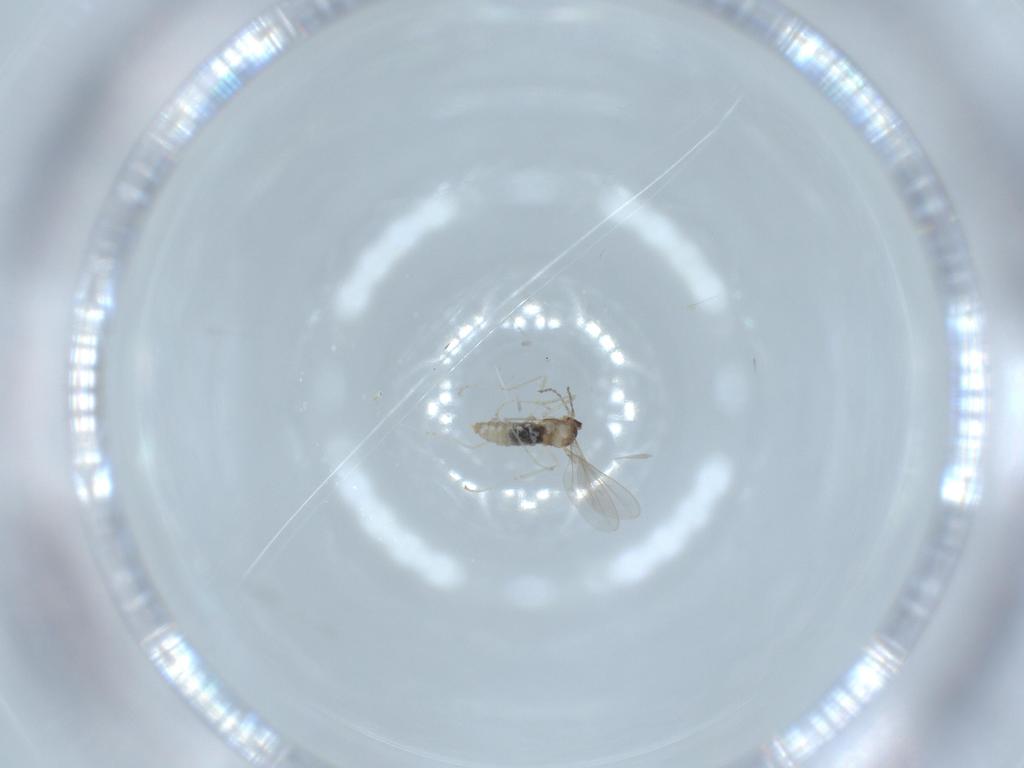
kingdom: Animalia
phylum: Arthropoda
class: Insecta
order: Diptera
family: Cecidomyiidae
